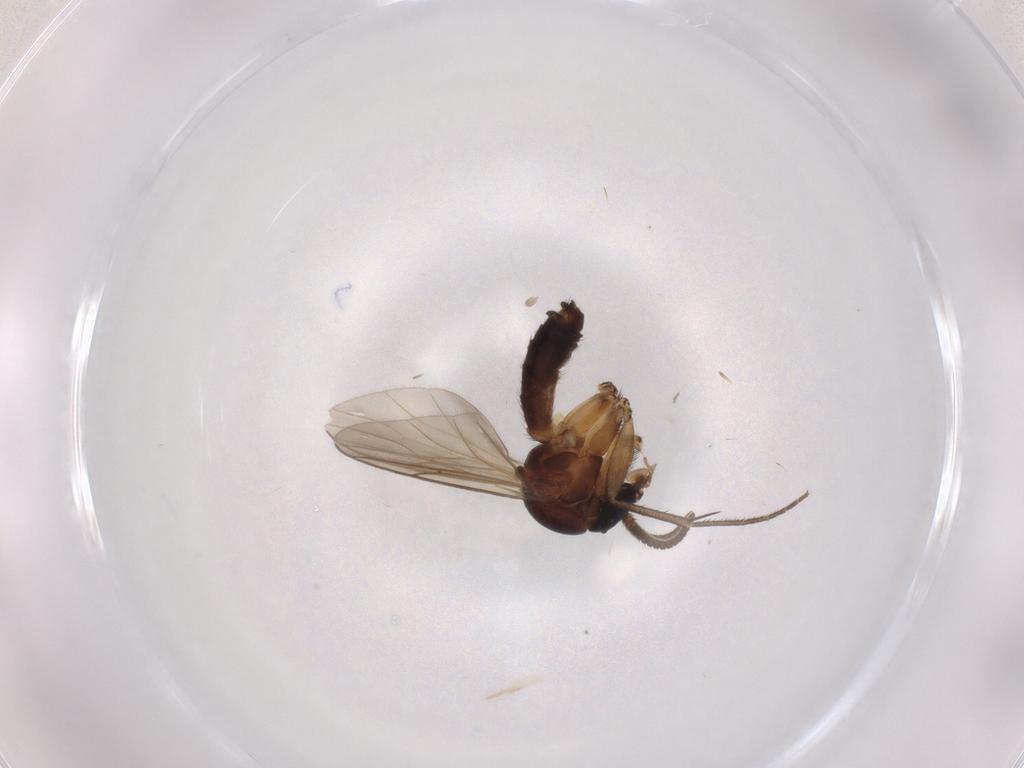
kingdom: Animalia
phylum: Arthropoda
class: Insecta
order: Diptera
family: Mycetophilidae
